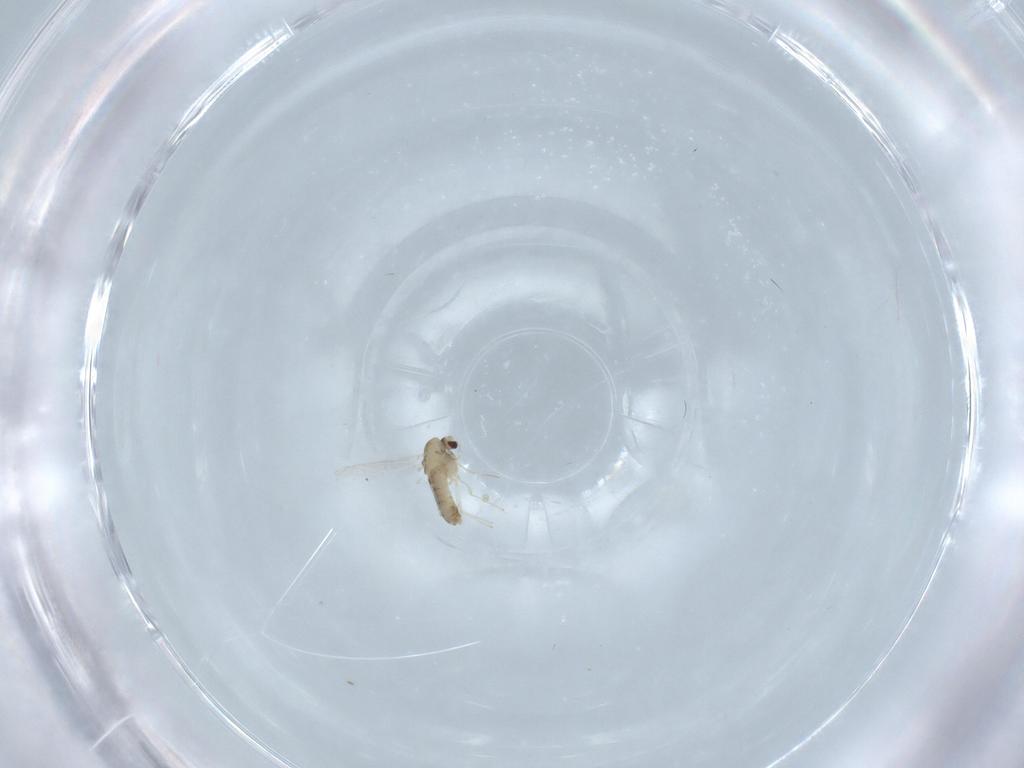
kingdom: Animalia
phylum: Arthropoda
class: Insecta
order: Diptera
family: Chironomidae
